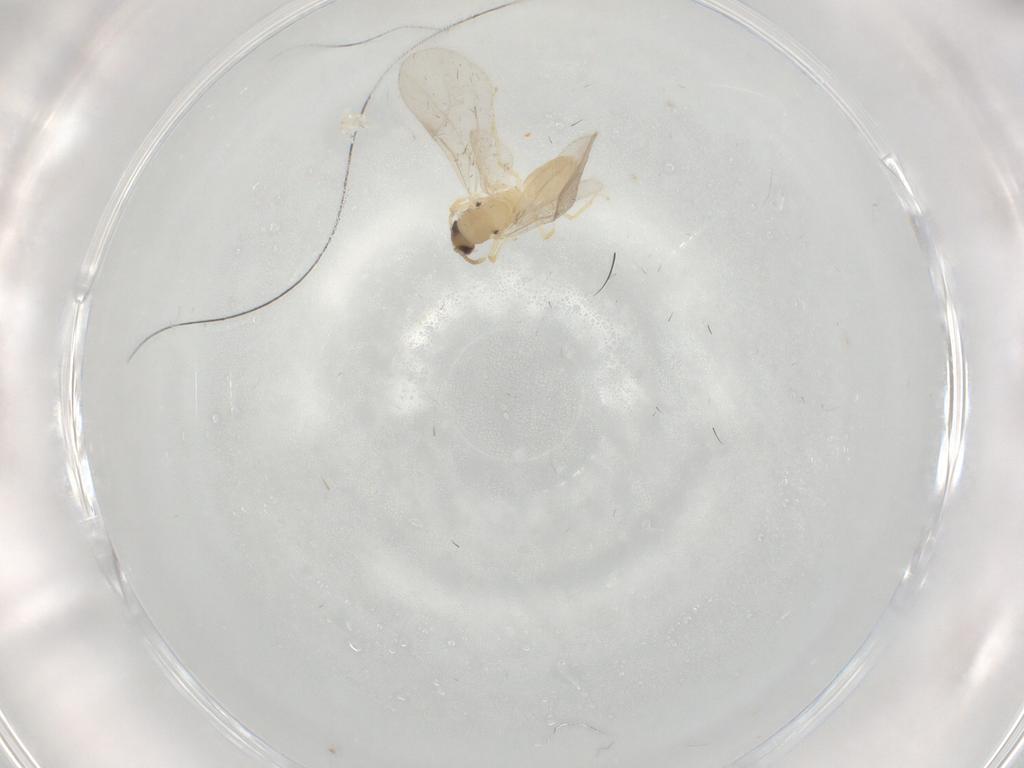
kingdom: Animalia
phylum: Arthropoda
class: Insecta
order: Hymenoptera
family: Formicidae
